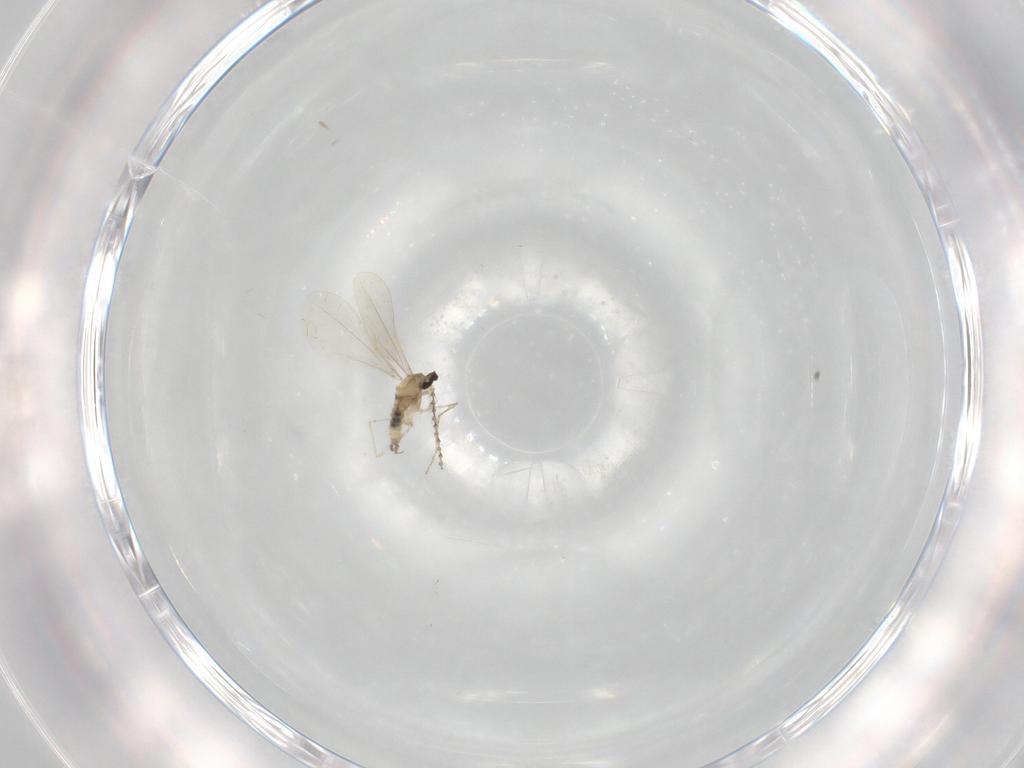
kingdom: Animalia
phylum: Arthropoda
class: Insecta
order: Diptera
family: Cecidomyiidae
